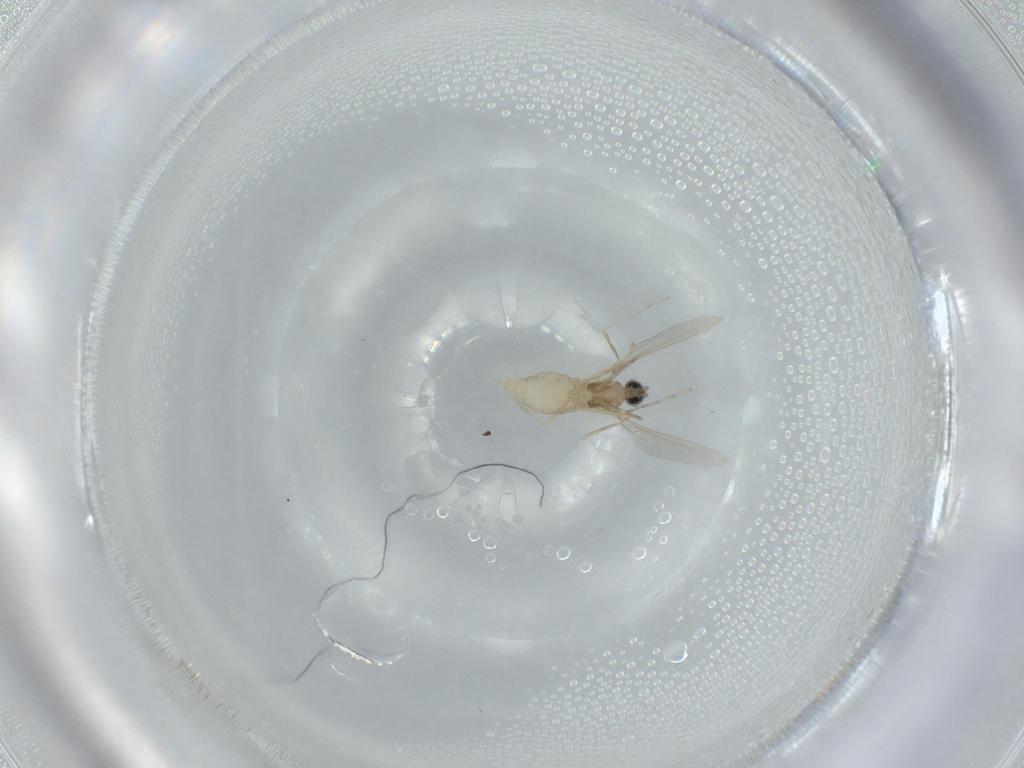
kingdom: Animalia
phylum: Arthropoda
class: Insecta
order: Diptera
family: Cecidomyiidae
